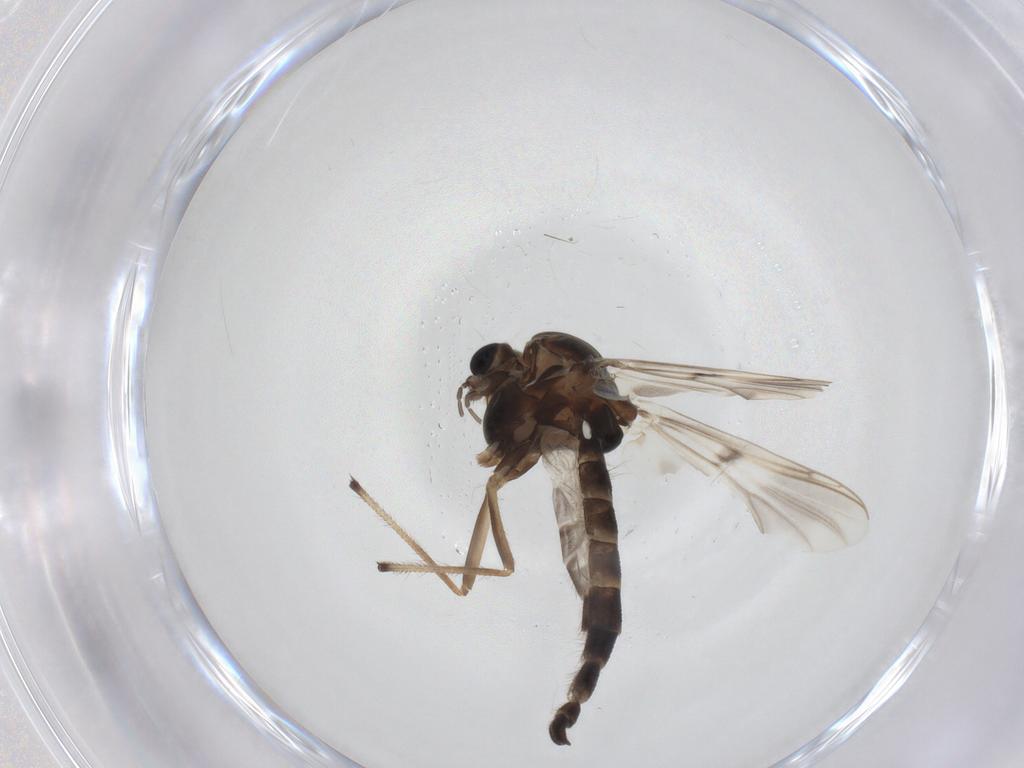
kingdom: Animalia
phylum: Arthropoda
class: Insecta
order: Diptera
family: Chironomidae
